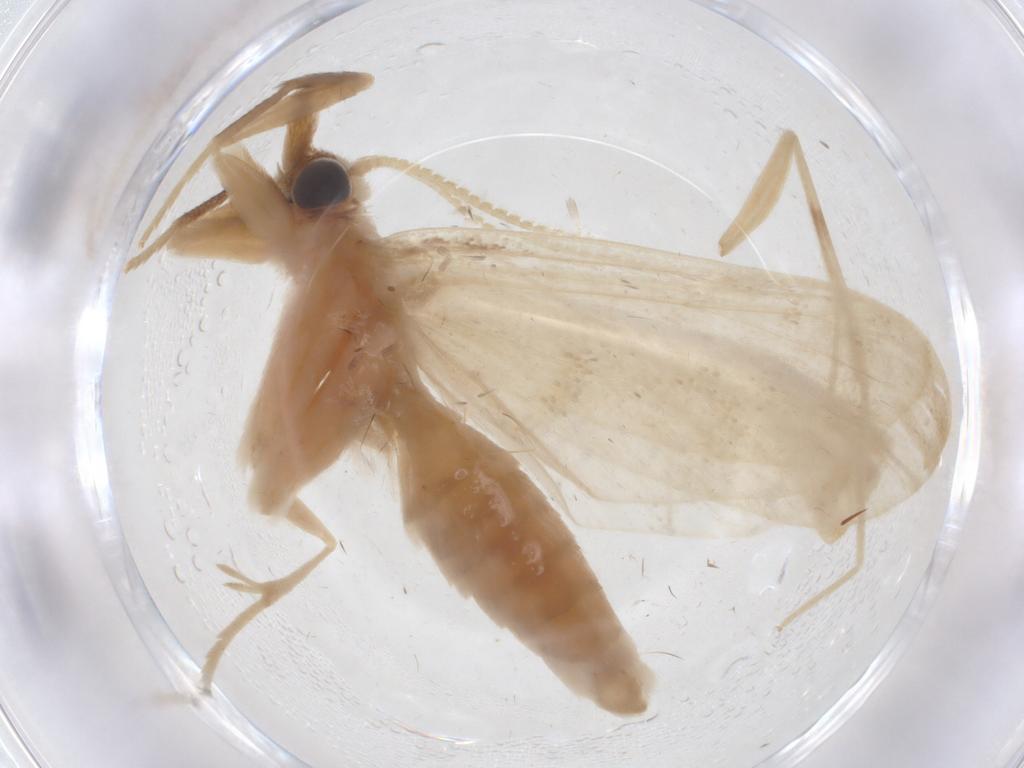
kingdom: Animalia
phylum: Arthropoda
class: Insecta
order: Lepidoptera
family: Crambidae
